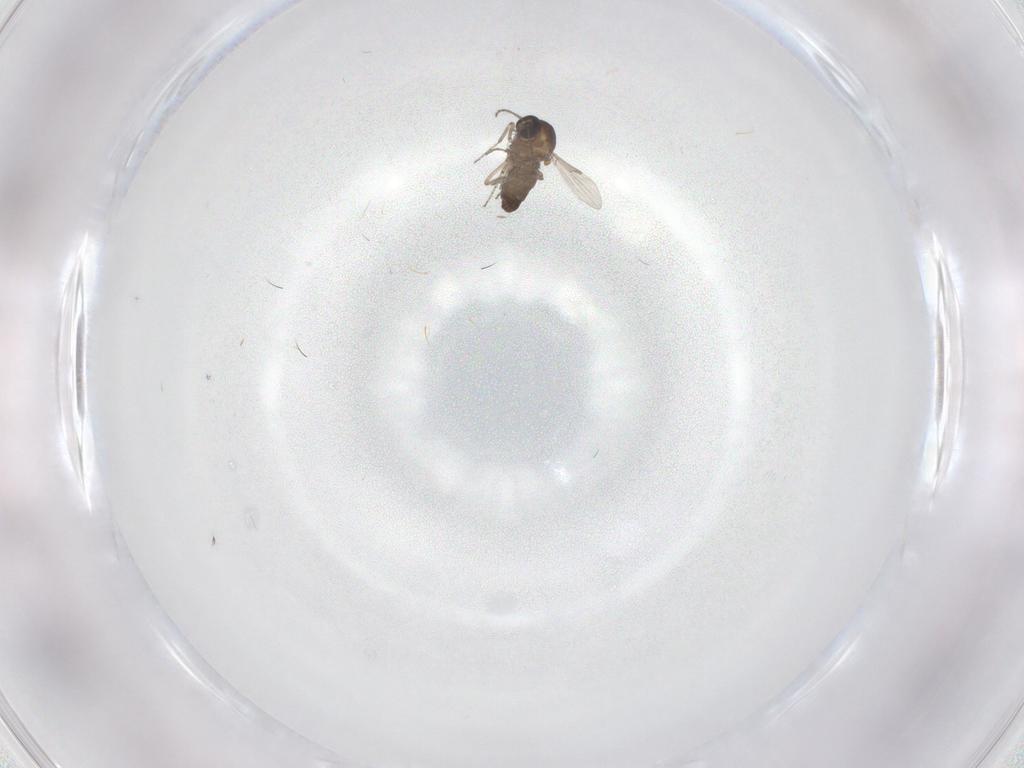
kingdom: Animalia
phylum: Arthropoda
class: Insecta
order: Diptera
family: Ceratopogonidae
